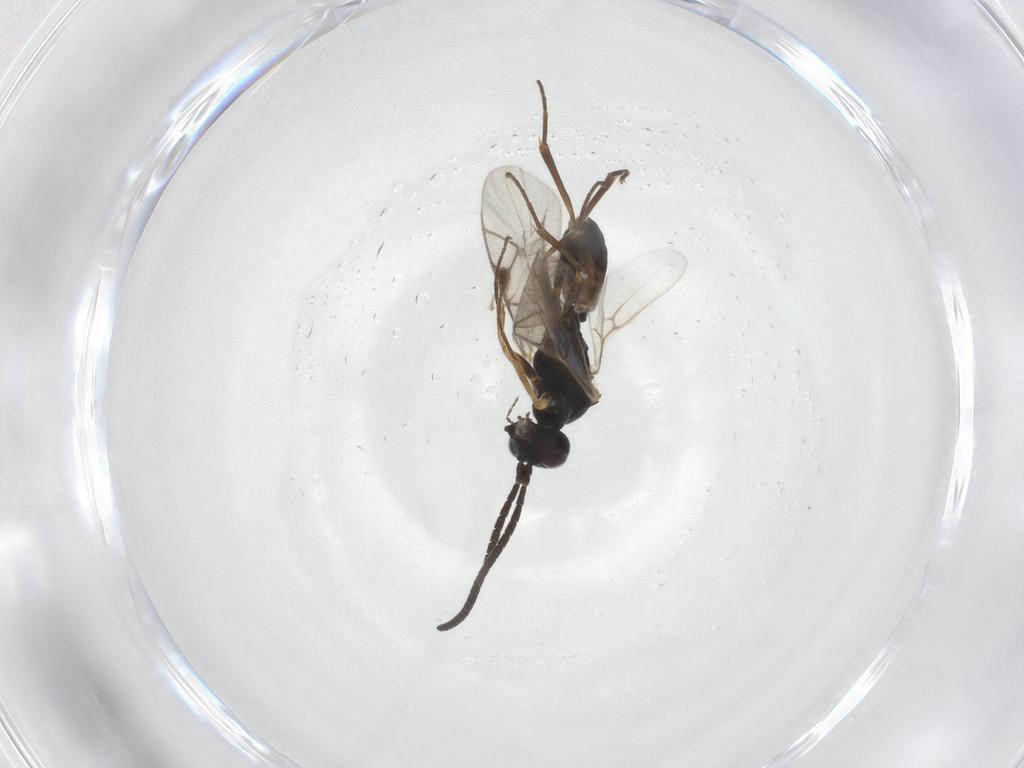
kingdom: Animalia
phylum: Arthropoda
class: Insecta
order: Hymenoptera
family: Ichneumonidae
